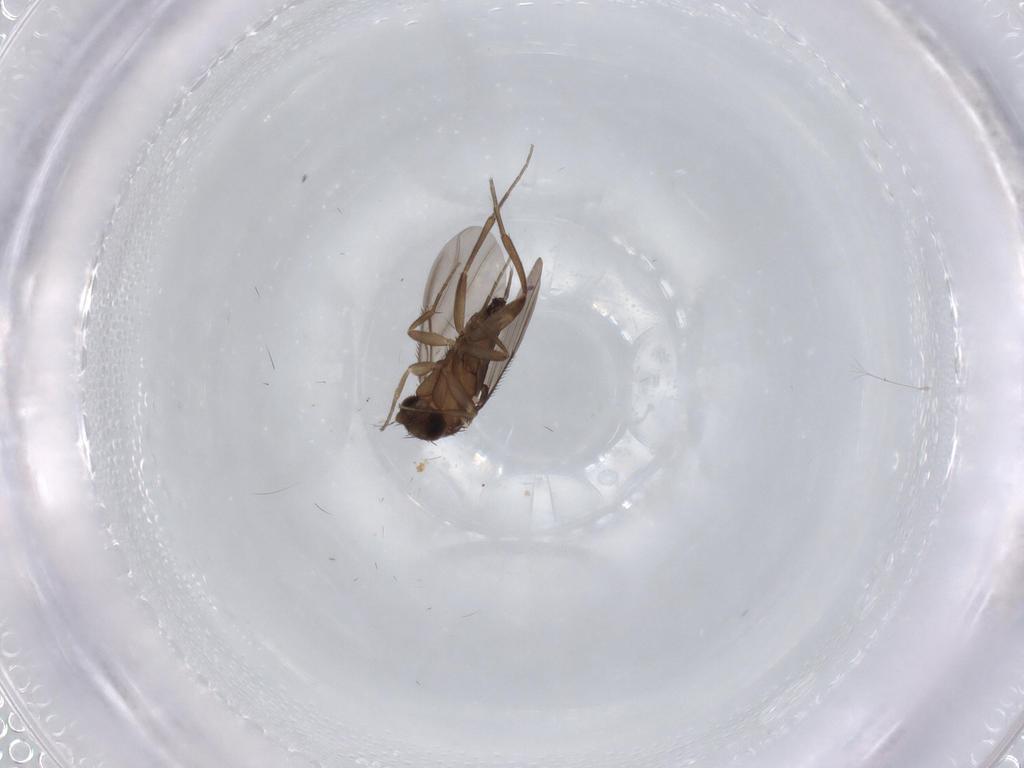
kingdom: Animalia
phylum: Arthropoda
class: Insecta
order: Diptera
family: Phoridae
